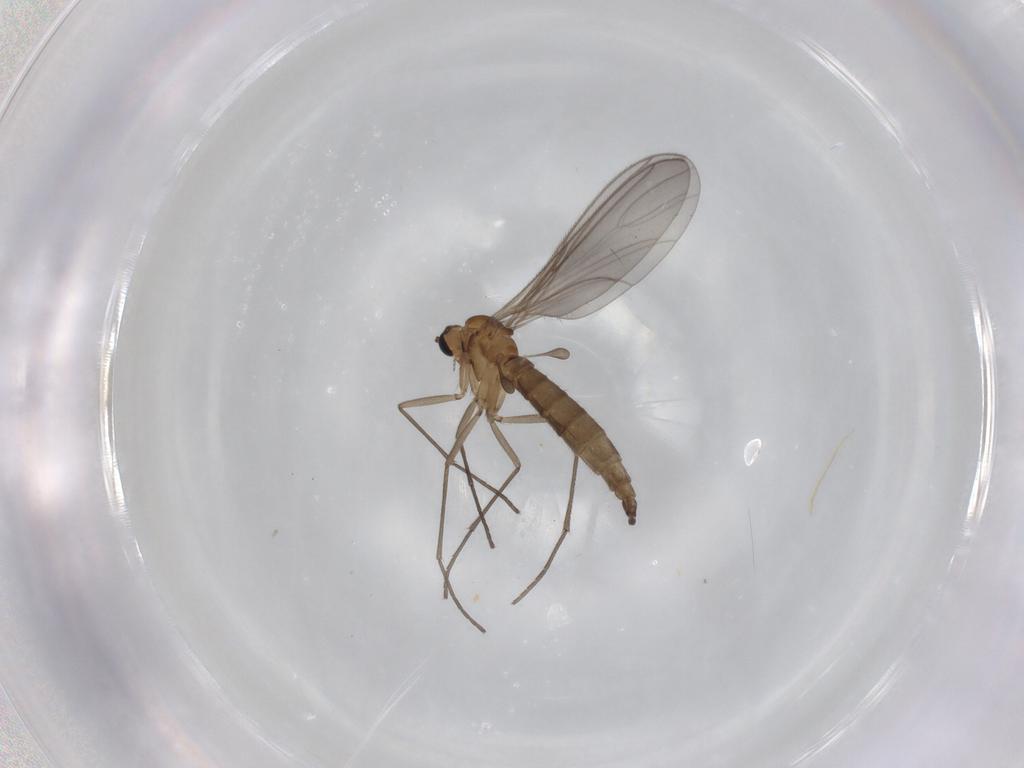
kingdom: Animalia
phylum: Arthropoda
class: Insecta
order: Diptera
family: Sciaridae
